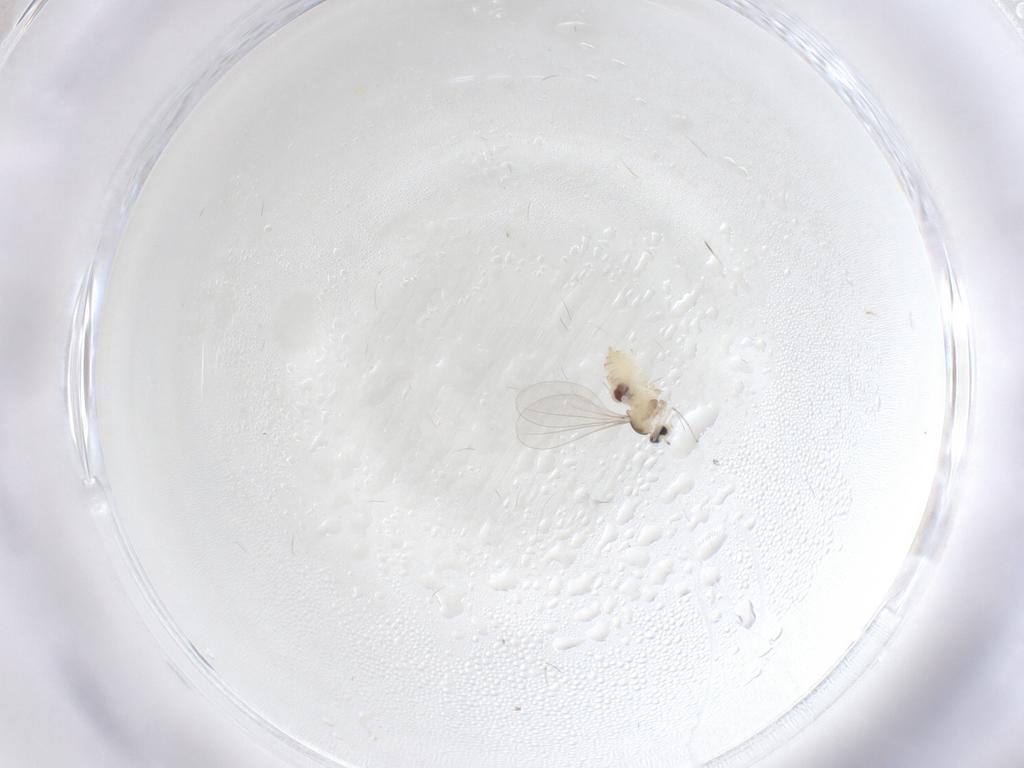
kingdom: Animalia
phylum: Arthropoda
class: Insecta
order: Diptera
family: Cecidomyiidae
